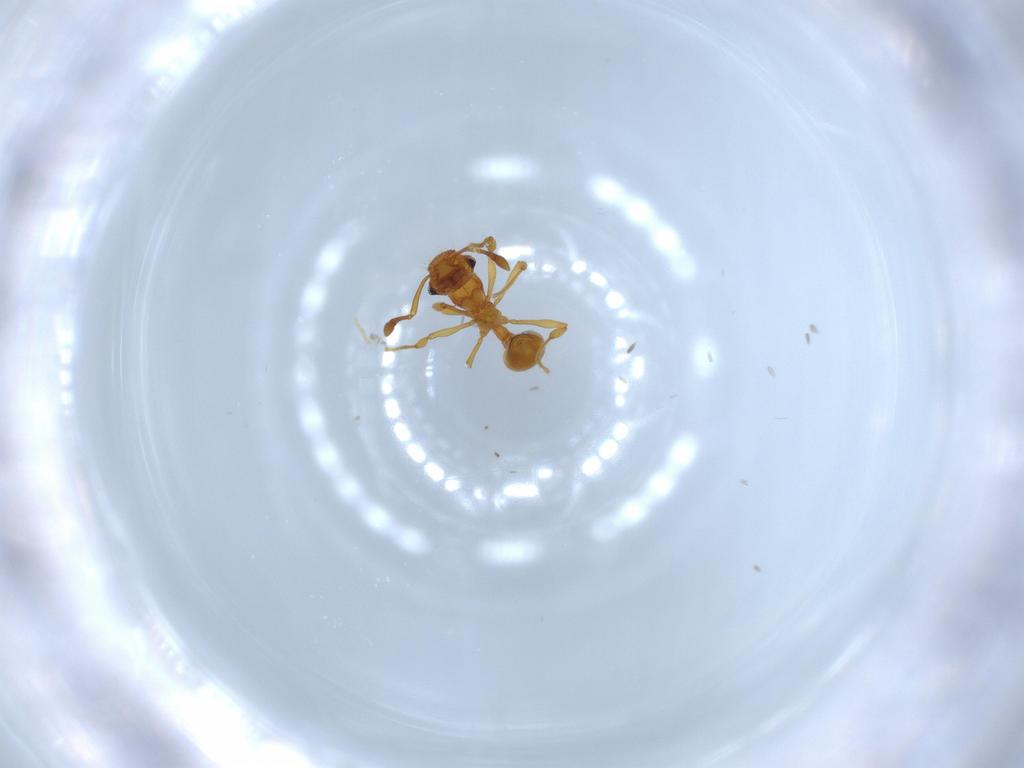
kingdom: Animalia
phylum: Arthropoda
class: Insecta
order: Hymenoptera
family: Formicidae
